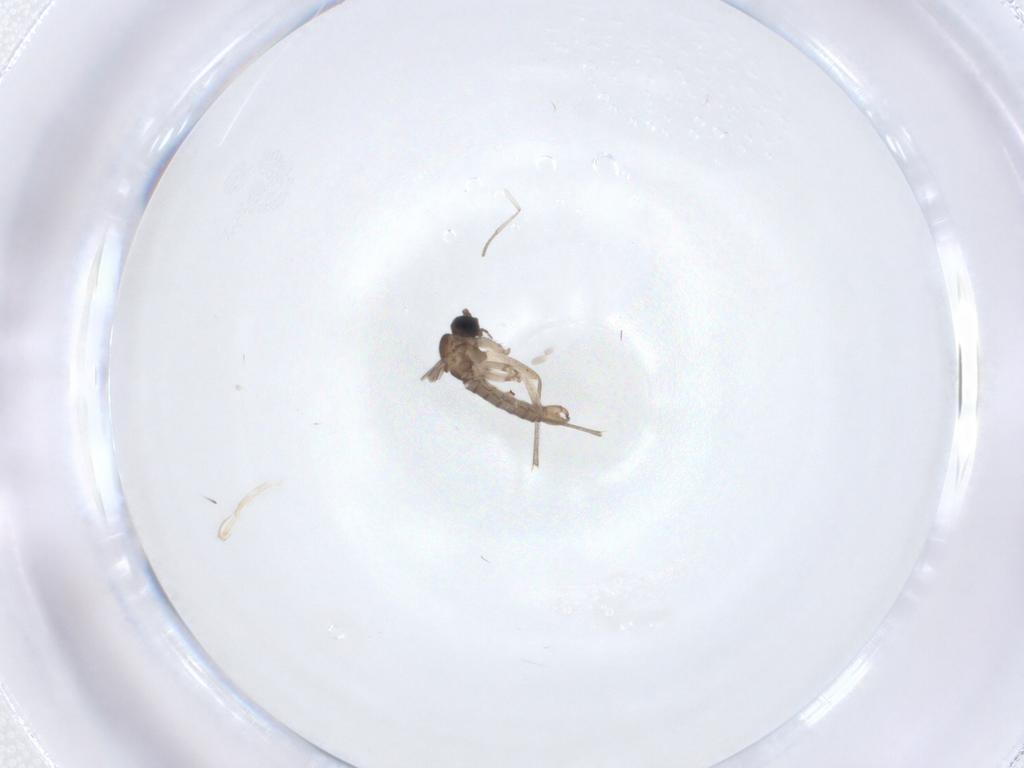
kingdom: Animalia
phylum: Arthropoda
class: Insecta
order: Diptera
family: Sciaridae
